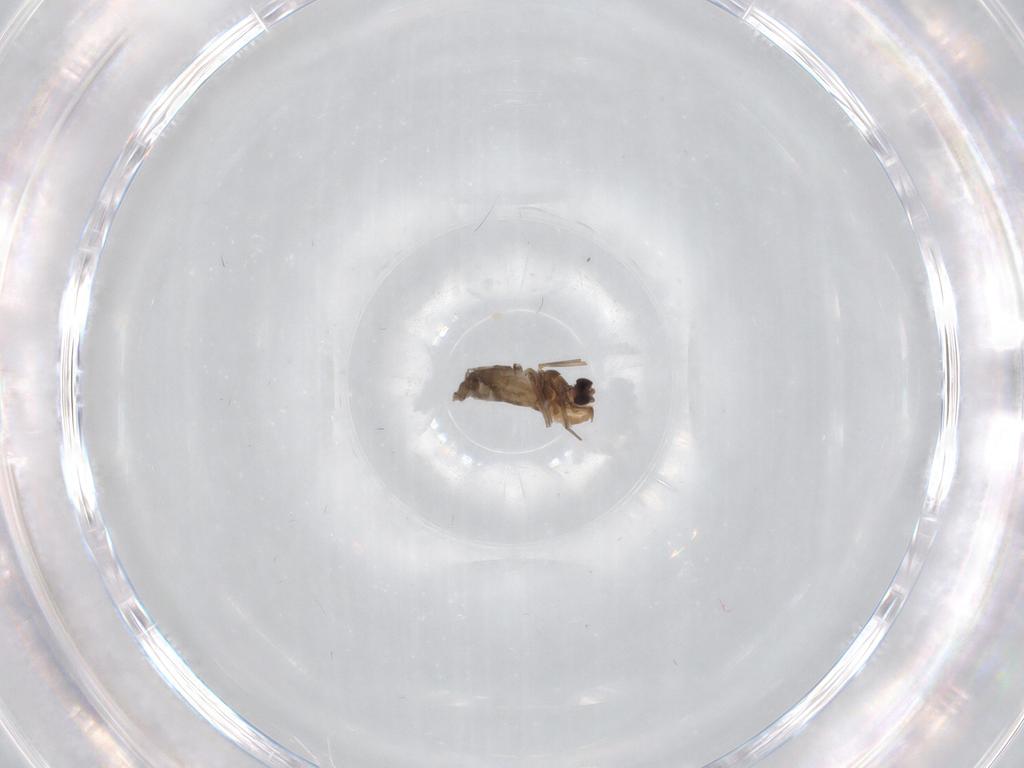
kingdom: Animalia
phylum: Arthropoda
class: Insecta
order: Diptera
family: Chironomidae
